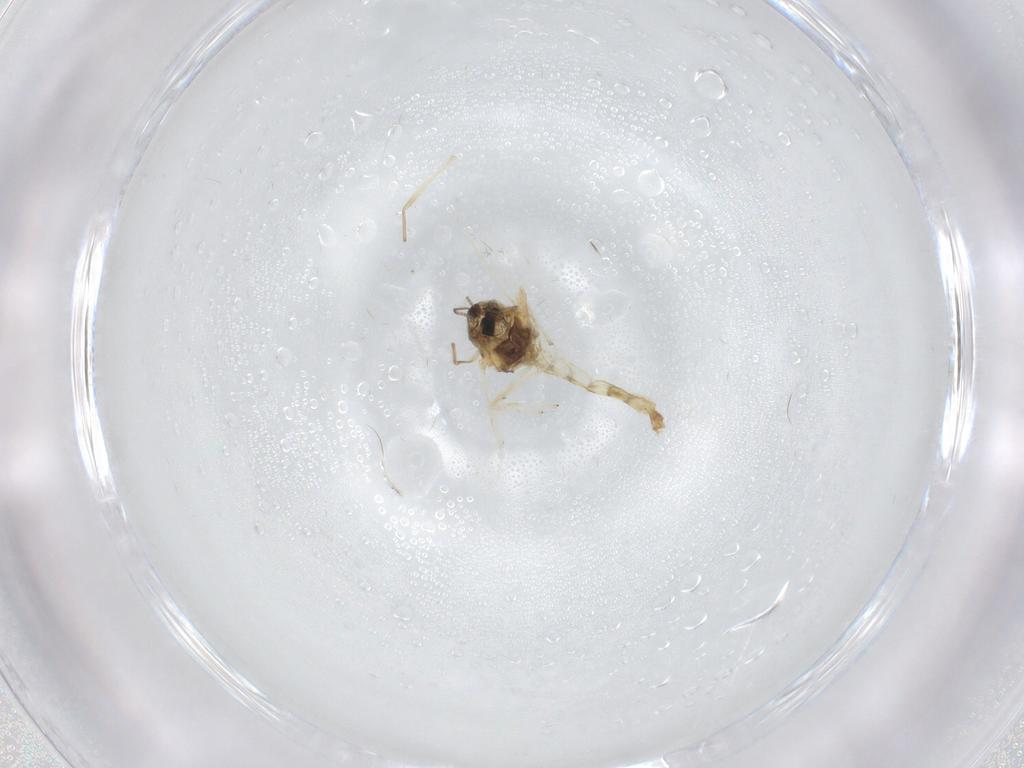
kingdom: Animalia
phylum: Arthropoda
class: Insecta
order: Diptera
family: Chironomidae
